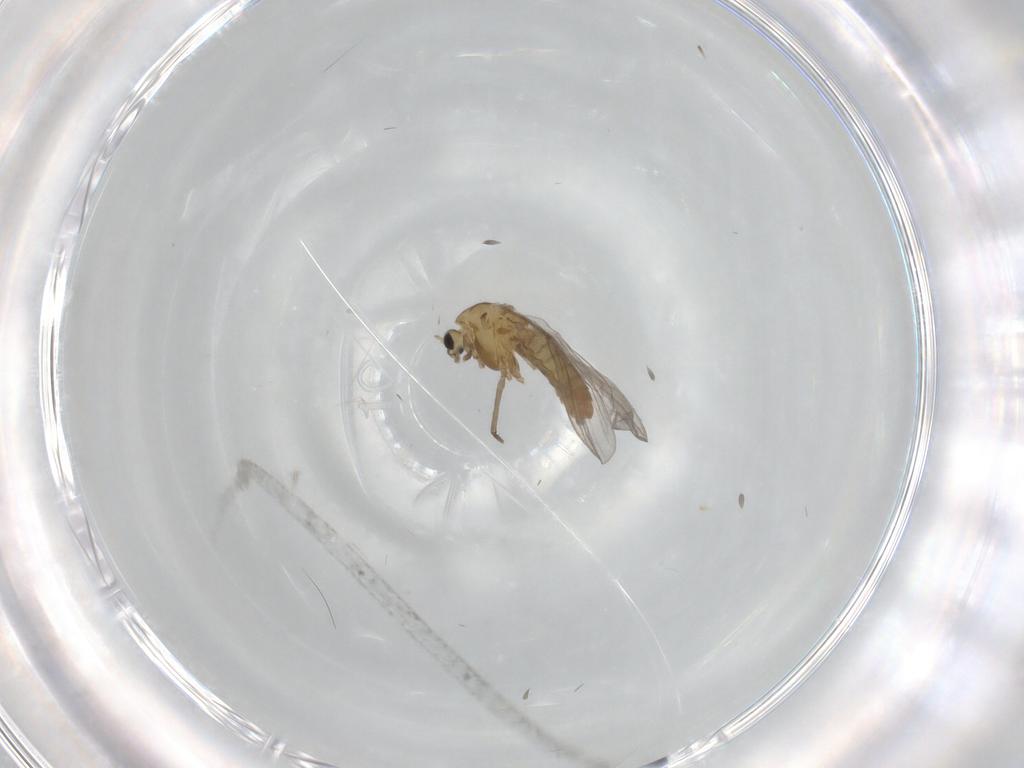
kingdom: Animalia
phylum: Arthropoda
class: Insecta
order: Diptera
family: Chironomidae
